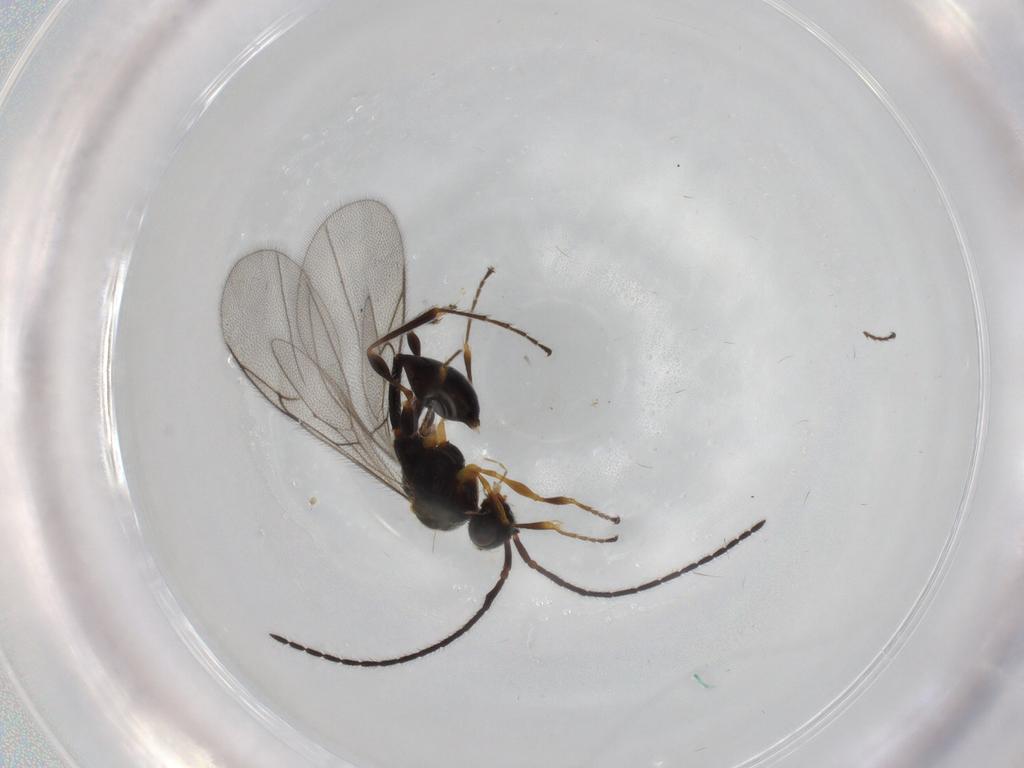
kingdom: Animalia
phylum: Arthropoda
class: Insecta
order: Hymenoptera
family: Diapriidae
